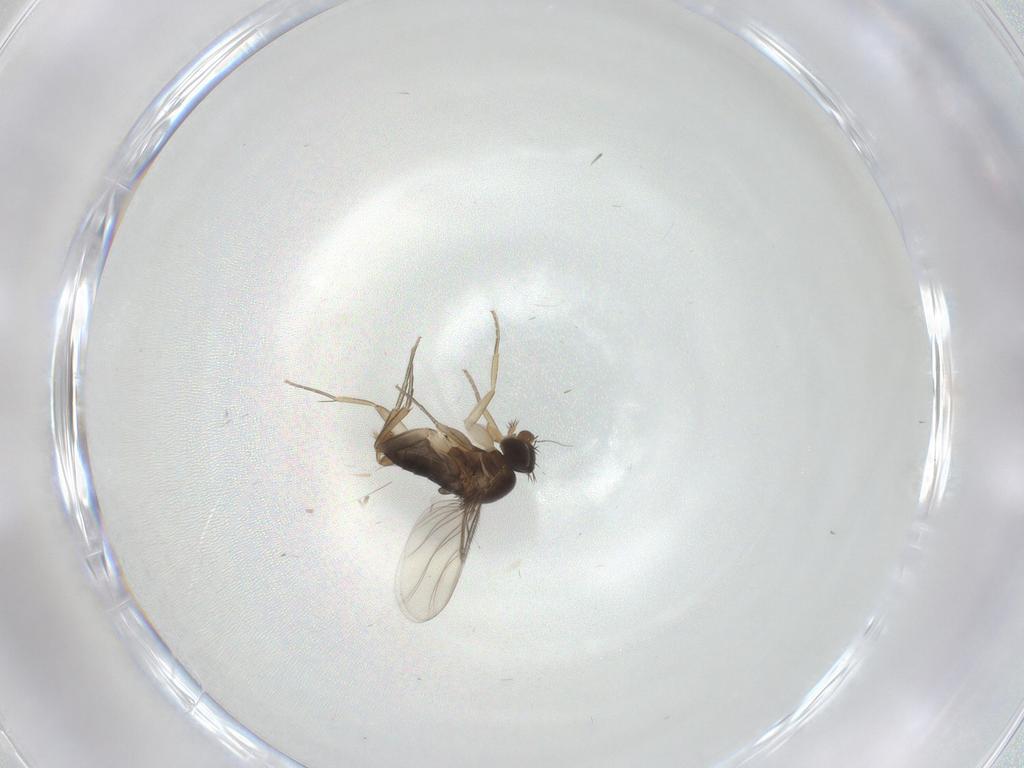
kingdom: Animalia
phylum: Arthropoda
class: Insecta
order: Diptera
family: Phoridae
